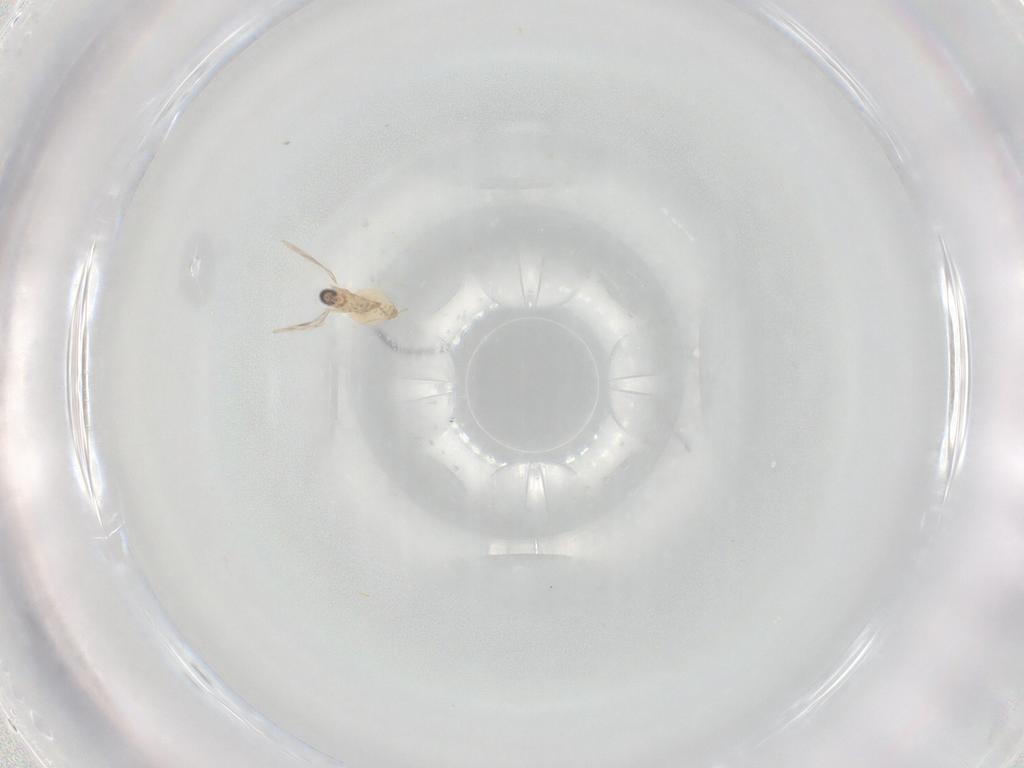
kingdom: Animalia
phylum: Arthropoda
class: Insecta
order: Diptera
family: Cecidomyiidae
